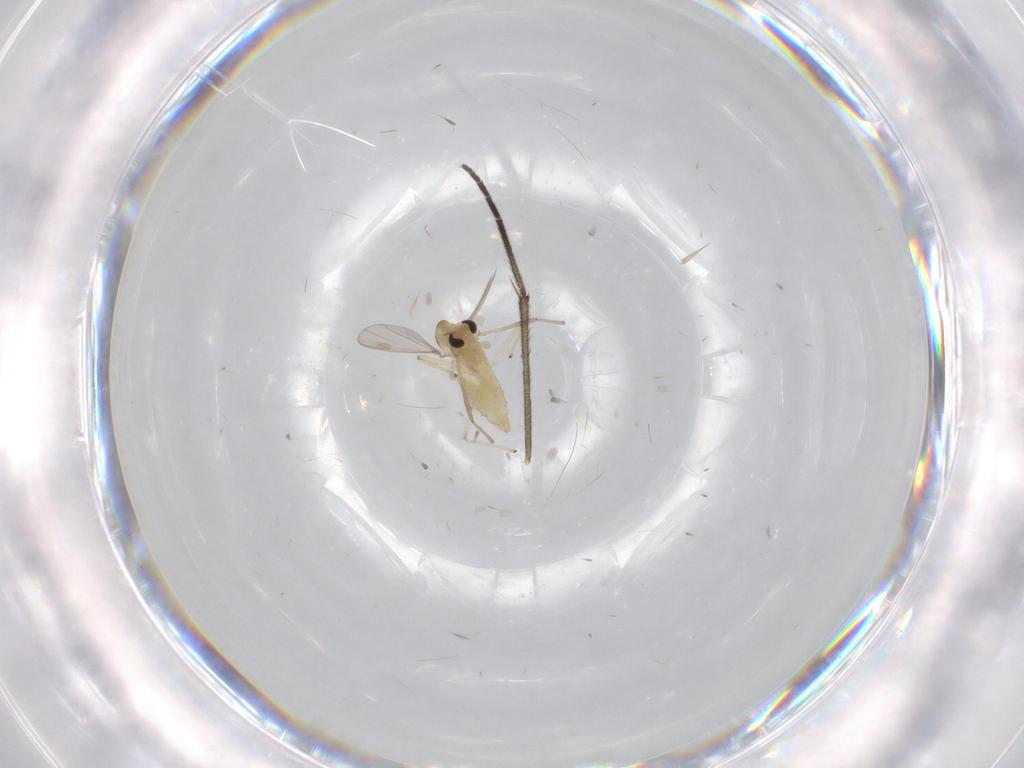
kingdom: Animalia
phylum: Arthropoda
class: Insecta
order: Diptera
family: Chironomidae
